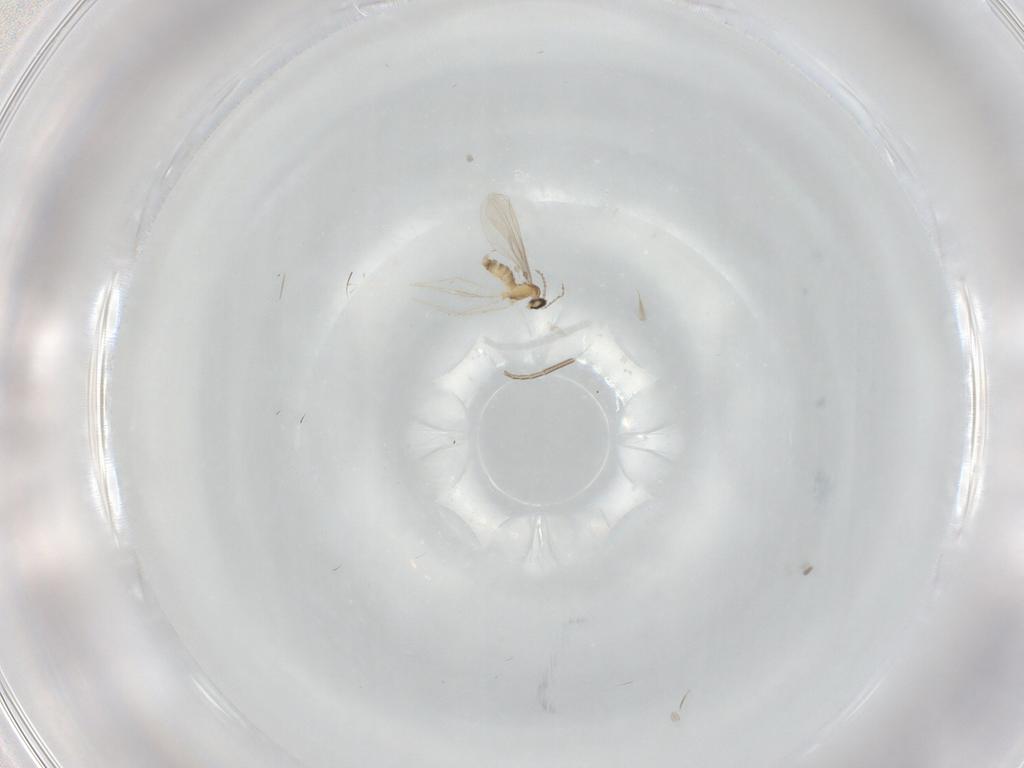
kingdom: Animalia
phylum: Arthropoda
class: Insecta
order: Diptera
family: Cecidomyiidae
